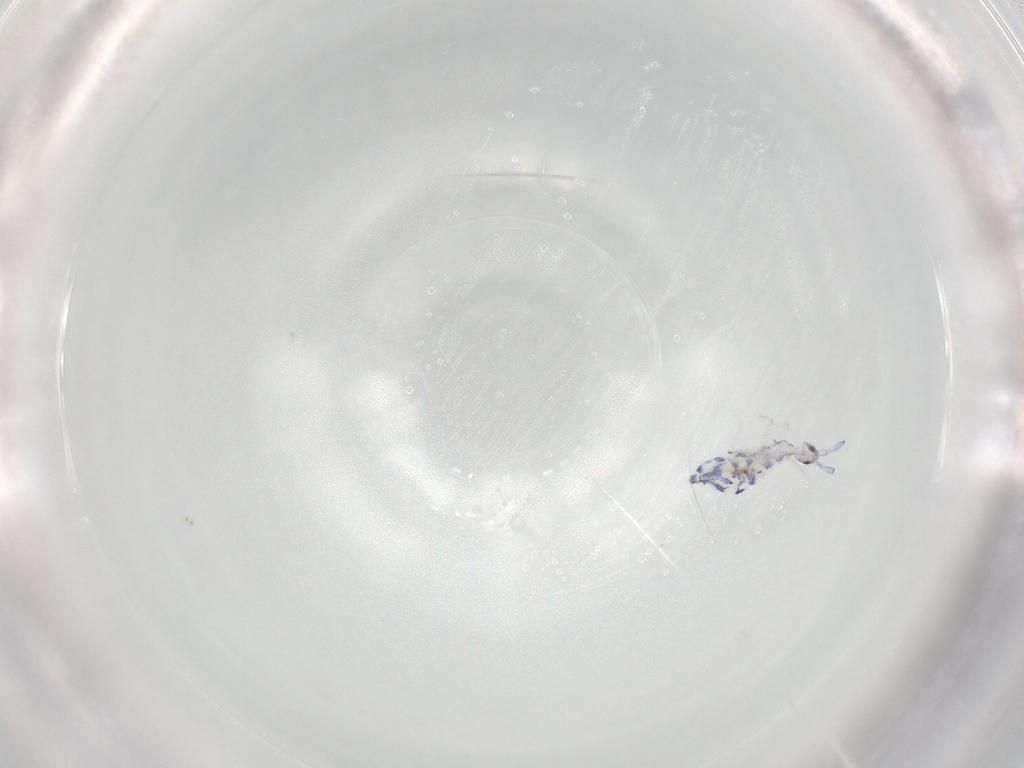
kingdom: Animalia
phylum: Arthropoda
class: Collembola
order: Entomobryomorpha
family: Entomobryidae
